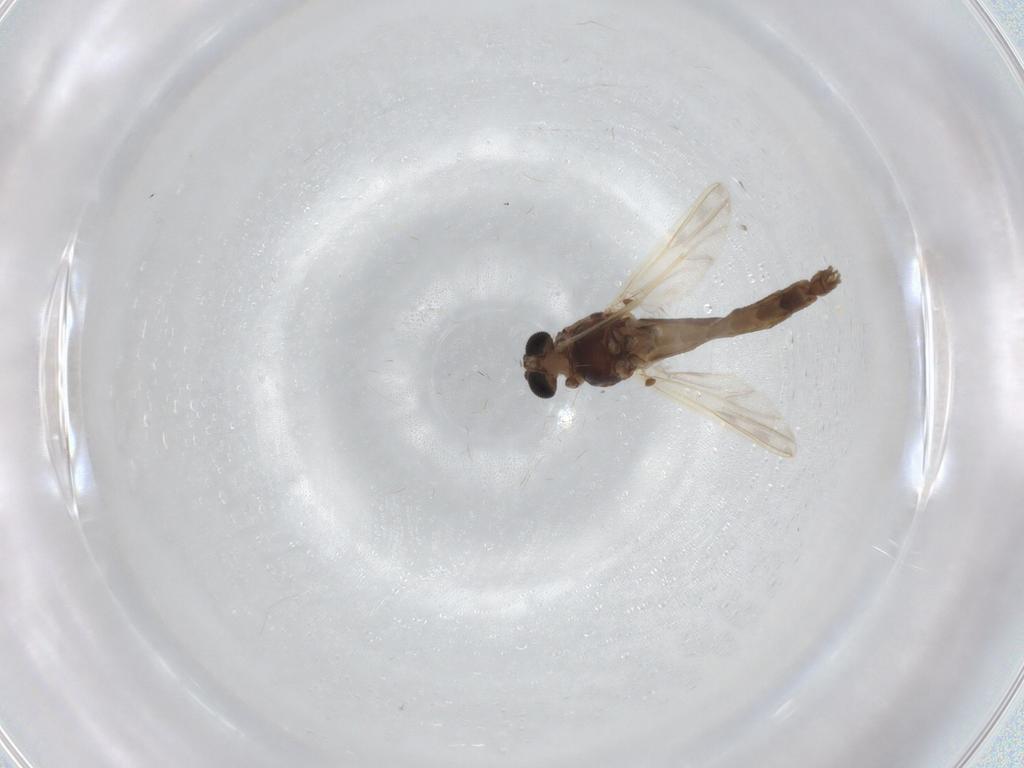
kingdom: Animalia
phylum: Arthropoda
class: Insecta
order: Diptera
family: Chironomidae
